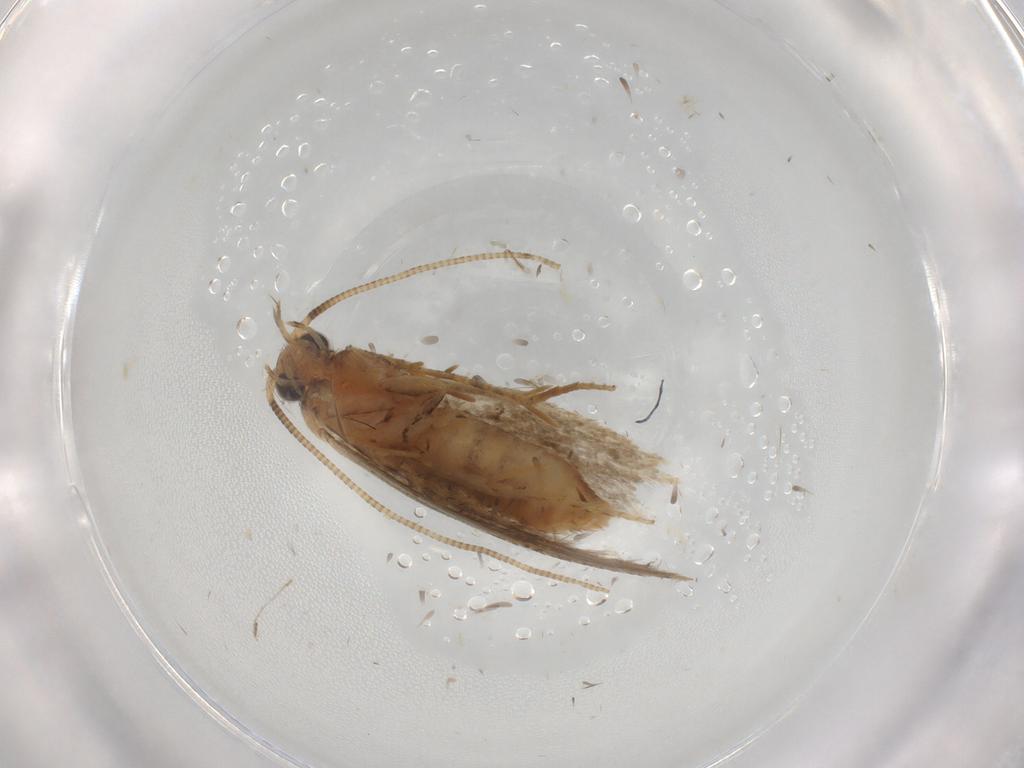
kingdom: Animalia
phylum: Arthropoda
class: Insecta
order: Lepidoptera
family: Tineidae
